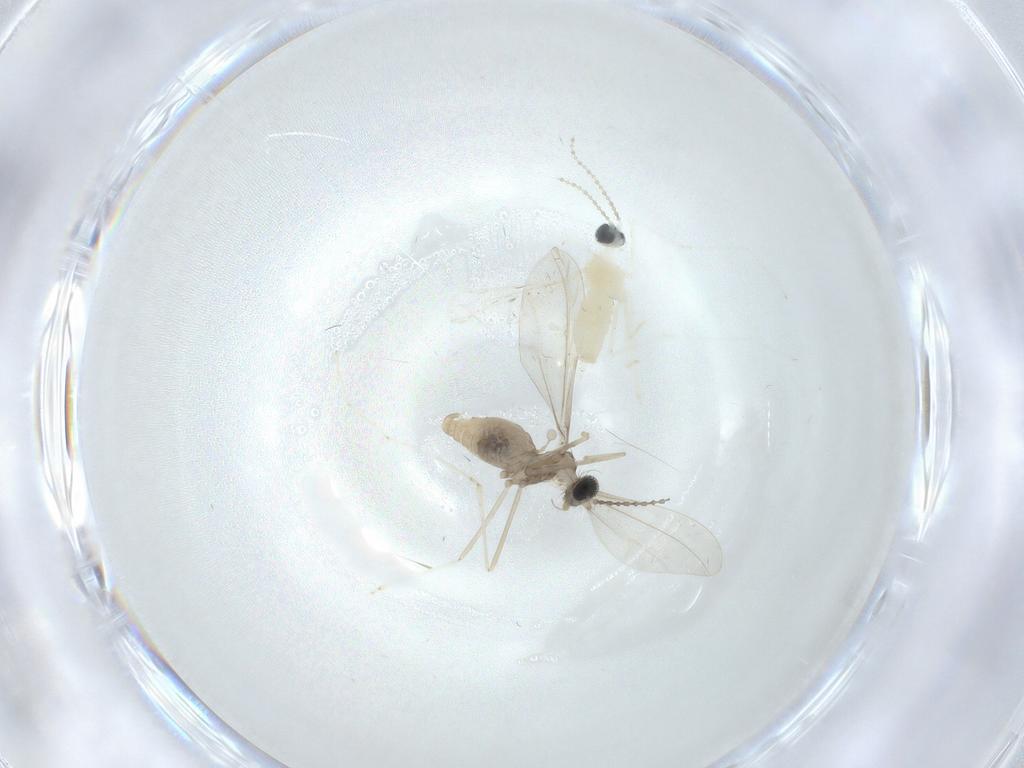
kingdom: Animalia
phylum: Arthropoda
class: Insecta
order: Diptera
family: Cecidomyiidae
